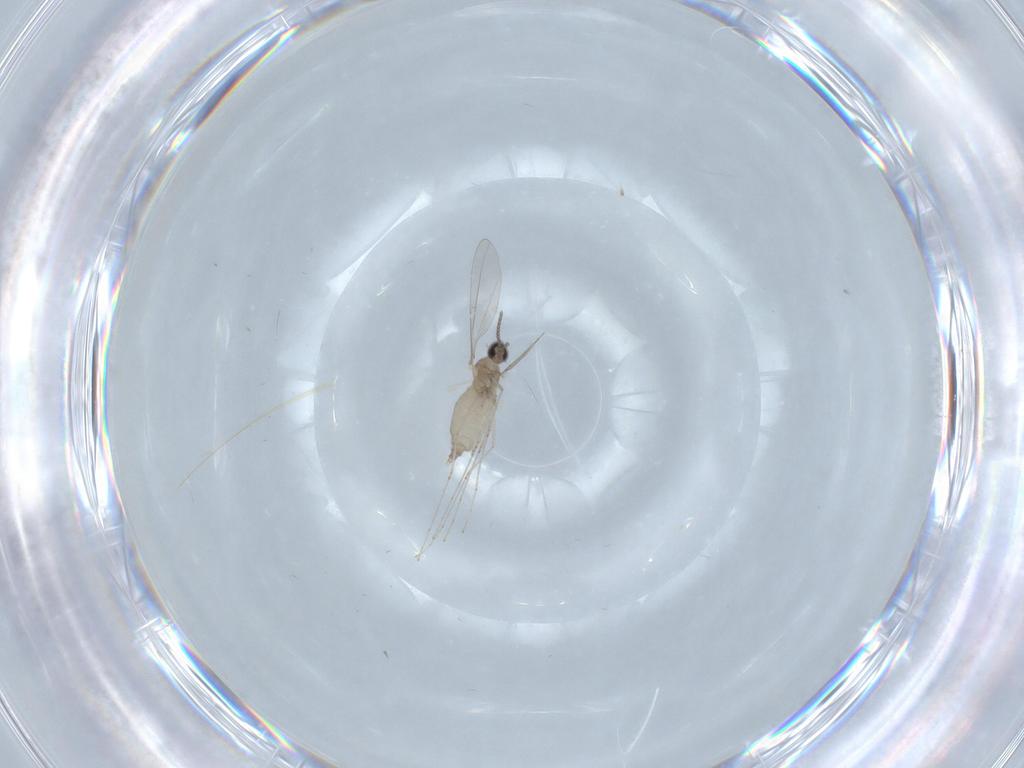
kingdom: Animalia
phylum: Arthropoda
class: Insecta
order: Diptera
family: Cecidomyiidae
